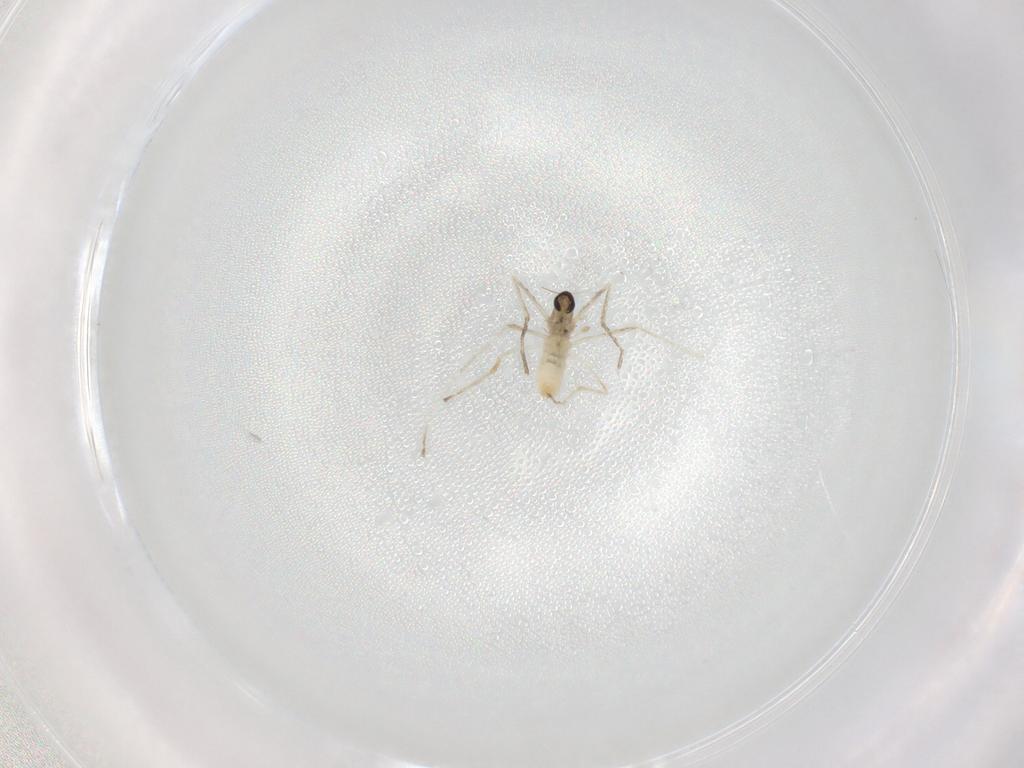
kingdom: Animalia
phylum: Arthropoda
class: Insecta
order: Diptera
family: Cecidomyiidae
